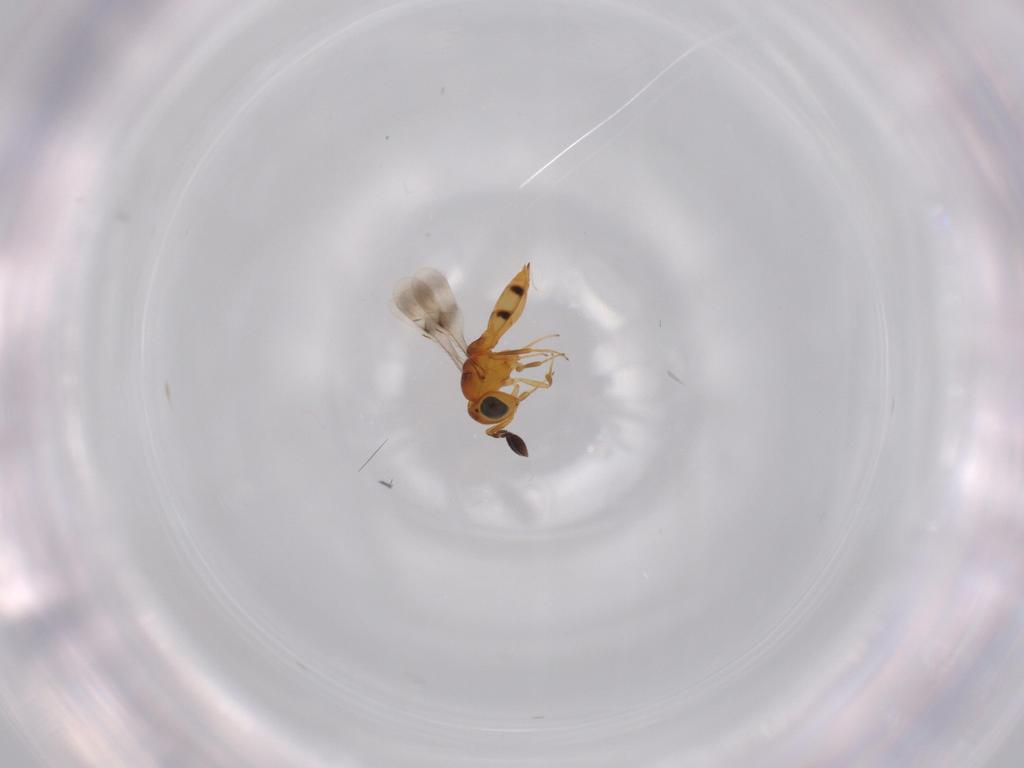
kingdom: Animalia
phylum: Arthropoda
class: Insecta
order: Hymenoptera
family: Scelionidae
